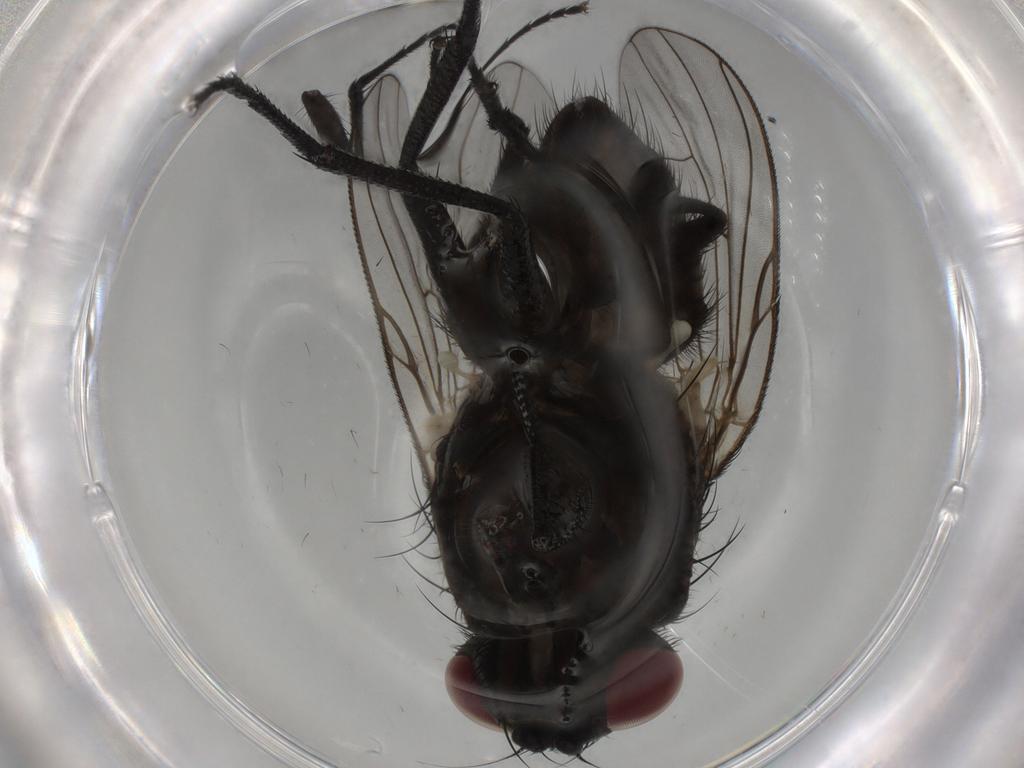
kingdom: Animalia
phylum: Arthropoda
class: Insecta
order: Diptera
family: Muscidae
